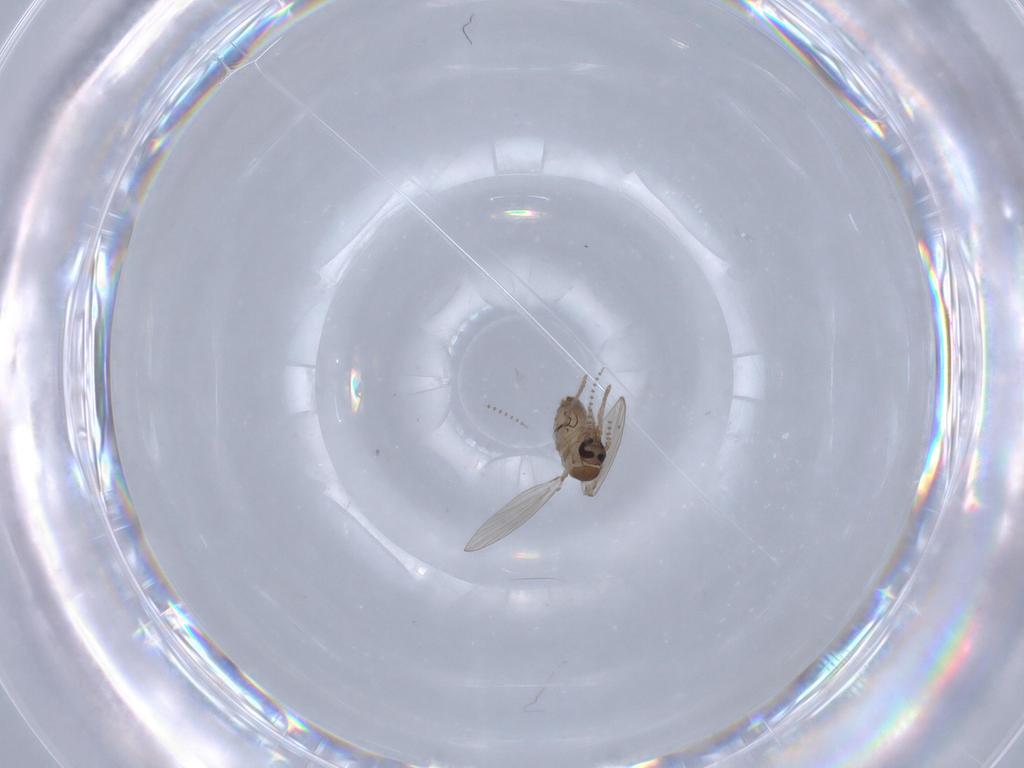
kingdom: Animalia
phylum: Arthropoda
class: Insecta
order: Diptera
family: Psychodidae
